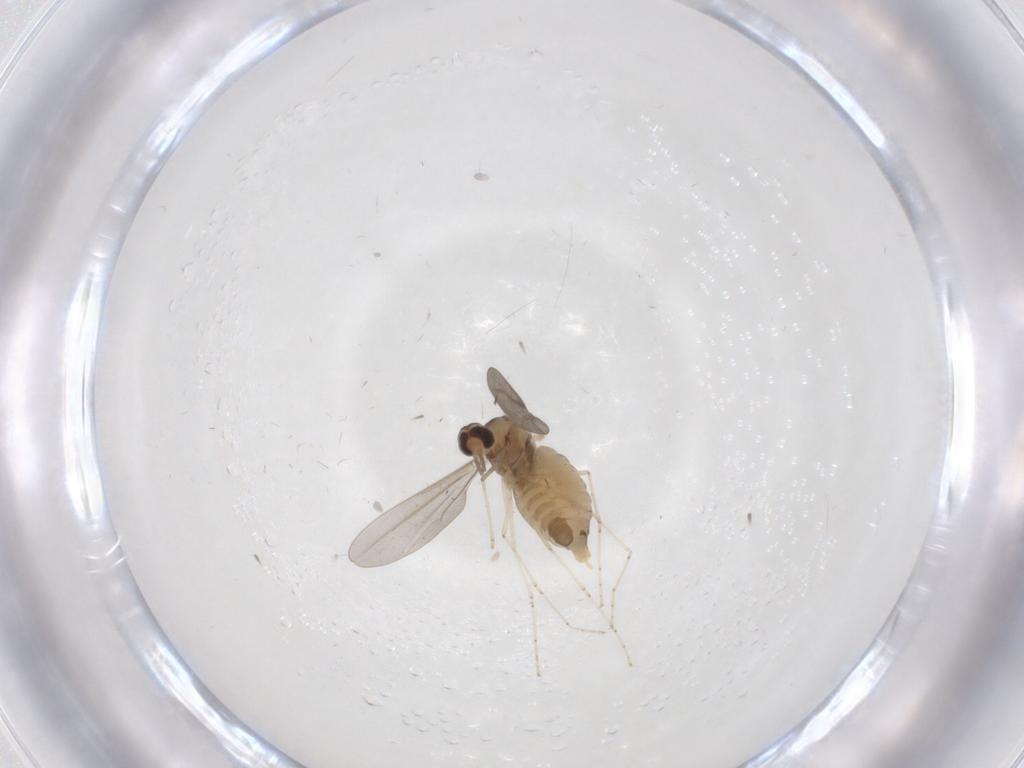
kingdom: Animalia
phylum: Arthropoda
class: Insecta
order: Diptera
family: Cecidomyiidae
